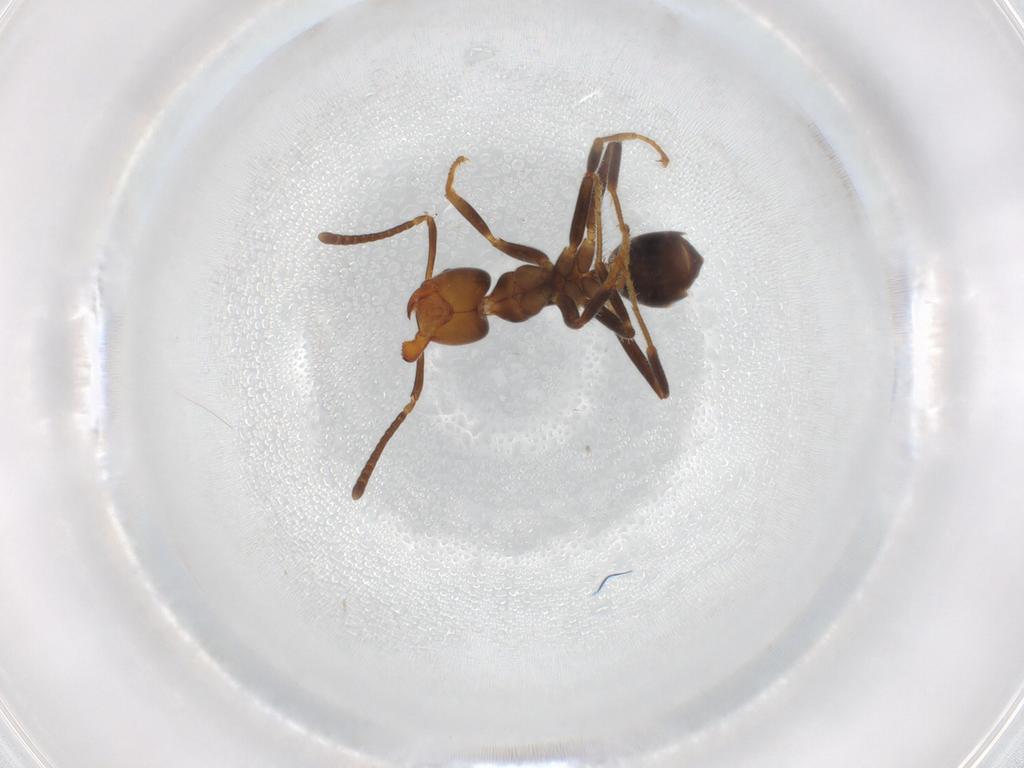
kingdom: Animalia
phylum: Arthropoda
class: Insecta
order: Hymenoptera
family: Formicidae
